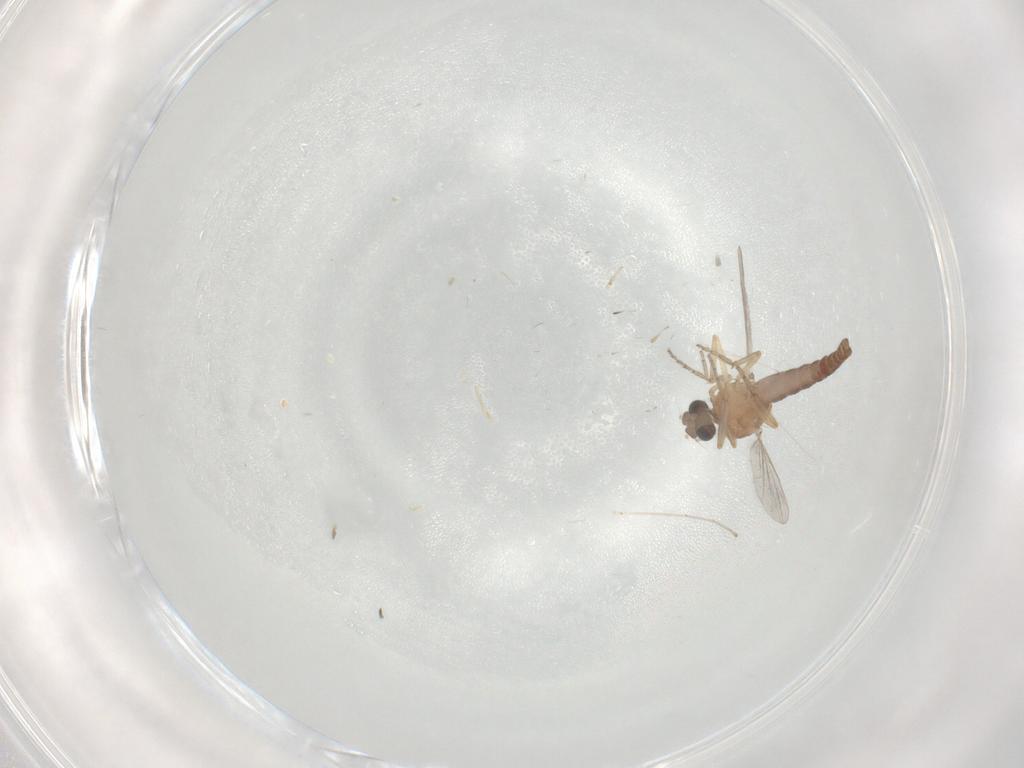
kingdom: Animalia
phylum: Arthropoda
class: Insecta
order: Diptera
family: Ceratopogonidae
